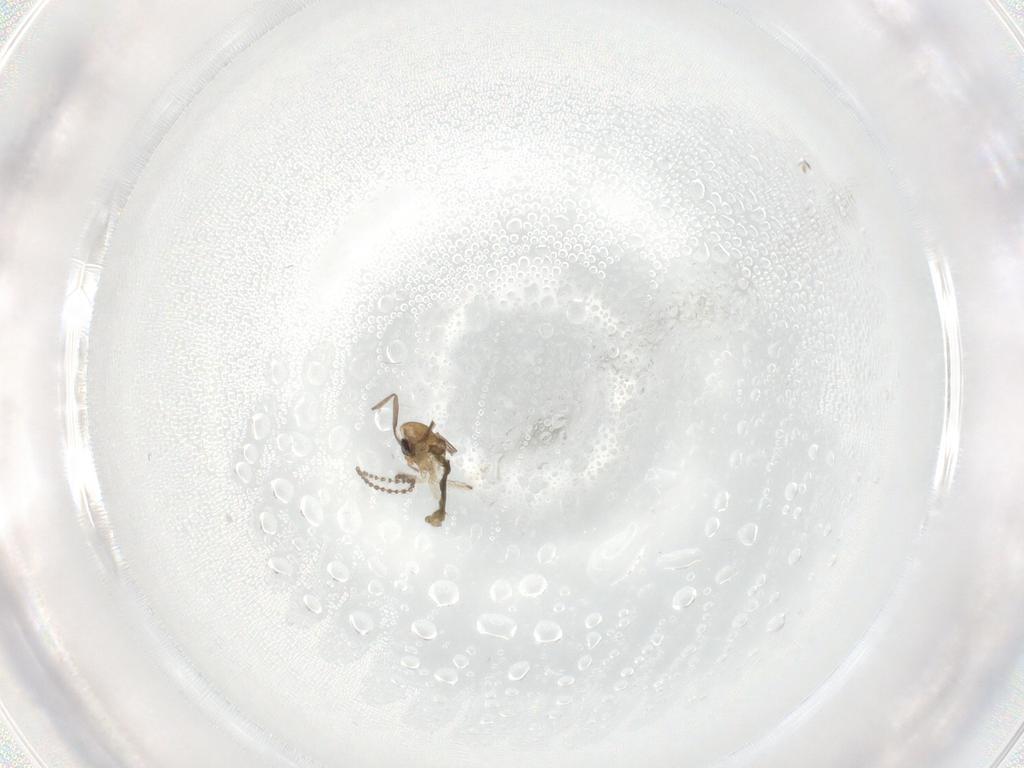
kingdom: Animalia
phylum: Arthropoda
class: Insecta
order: Diptera
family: Chironomidae
